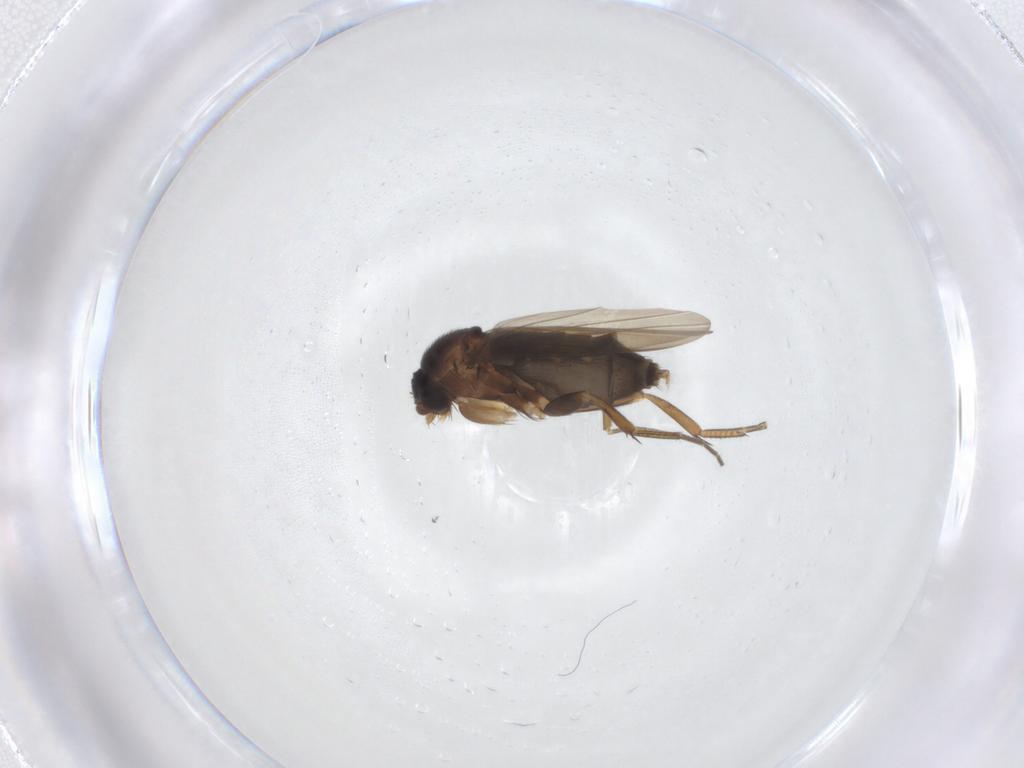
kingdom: Animalia
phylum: Arthropoda
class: Insecta
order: Diptera
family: Phoridae
